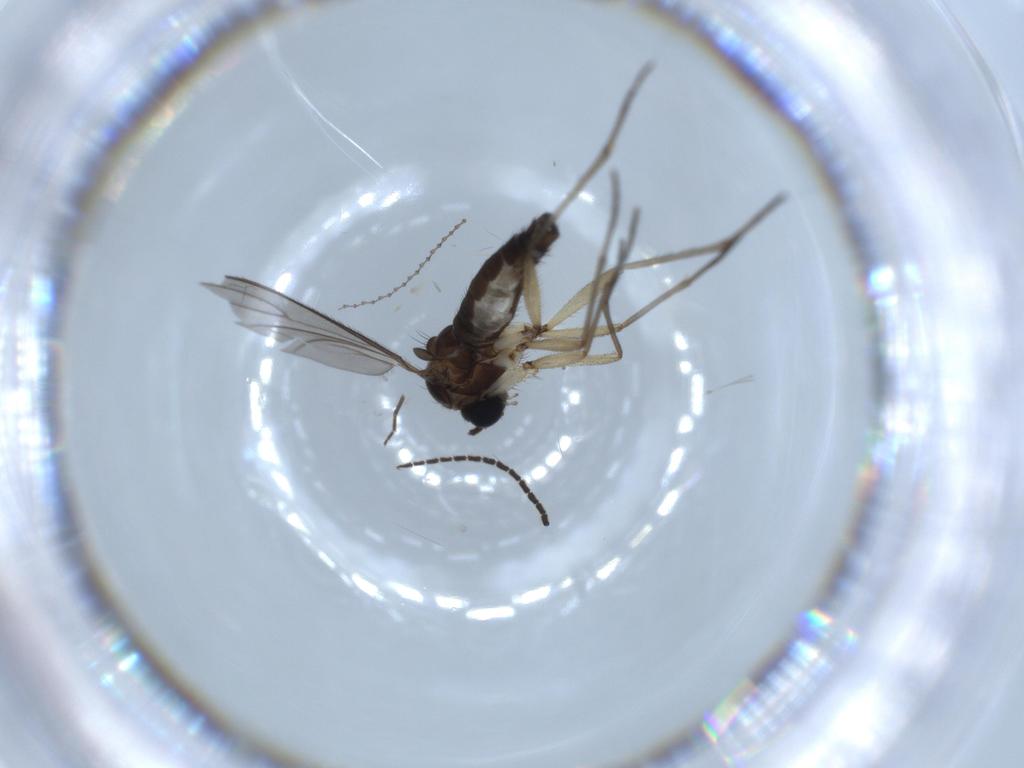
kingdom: Animalia
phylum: Arthropoda
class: Insecta
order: Diptera
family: Sciaridae
